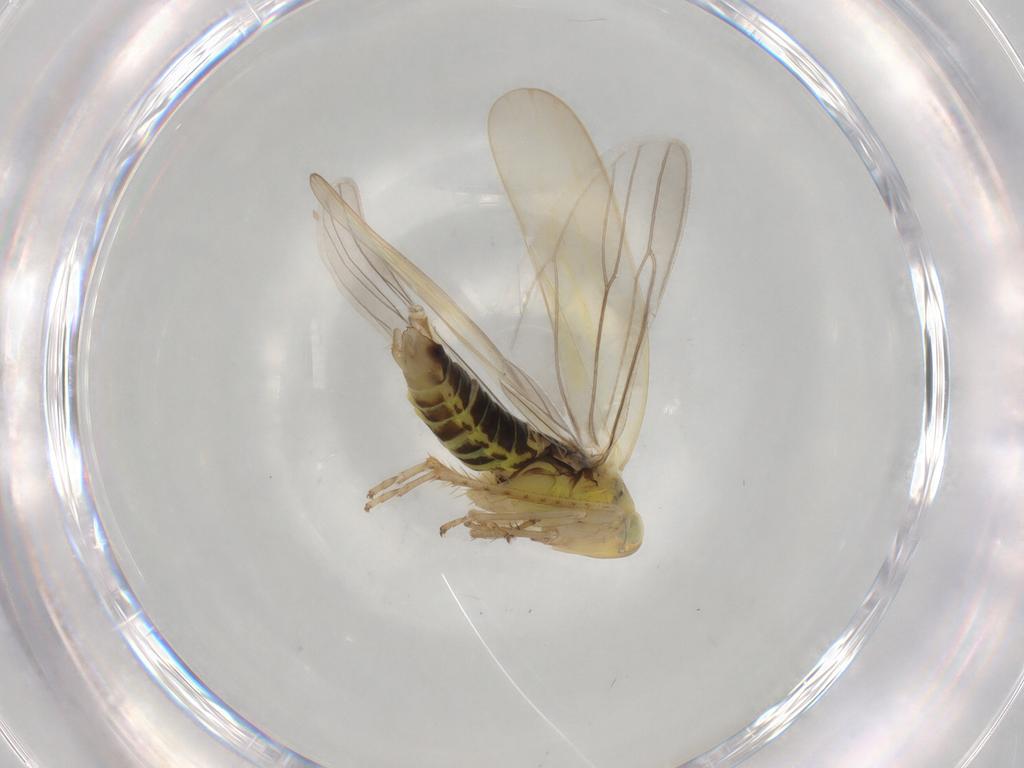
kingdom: Animalia
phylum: Arthropoda
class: Insecta
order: Hemiptera
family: Cicadellidae
